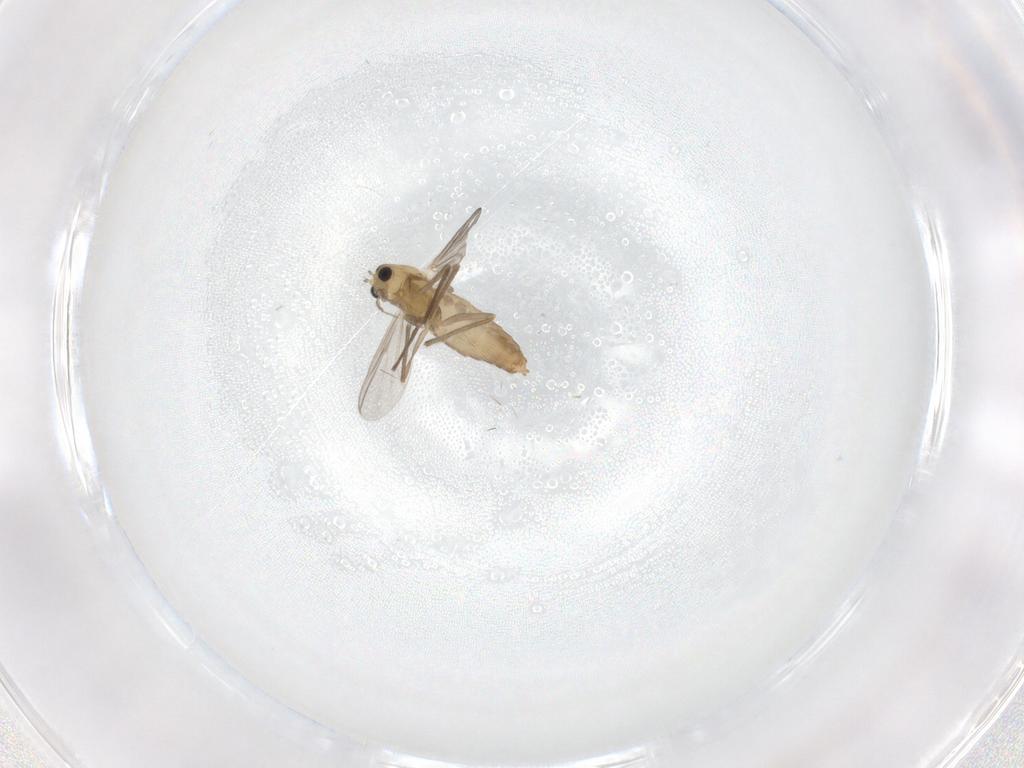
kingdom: Animalia
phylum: Arthropoda
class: Insecta
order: Diptera
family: Chironomidae
